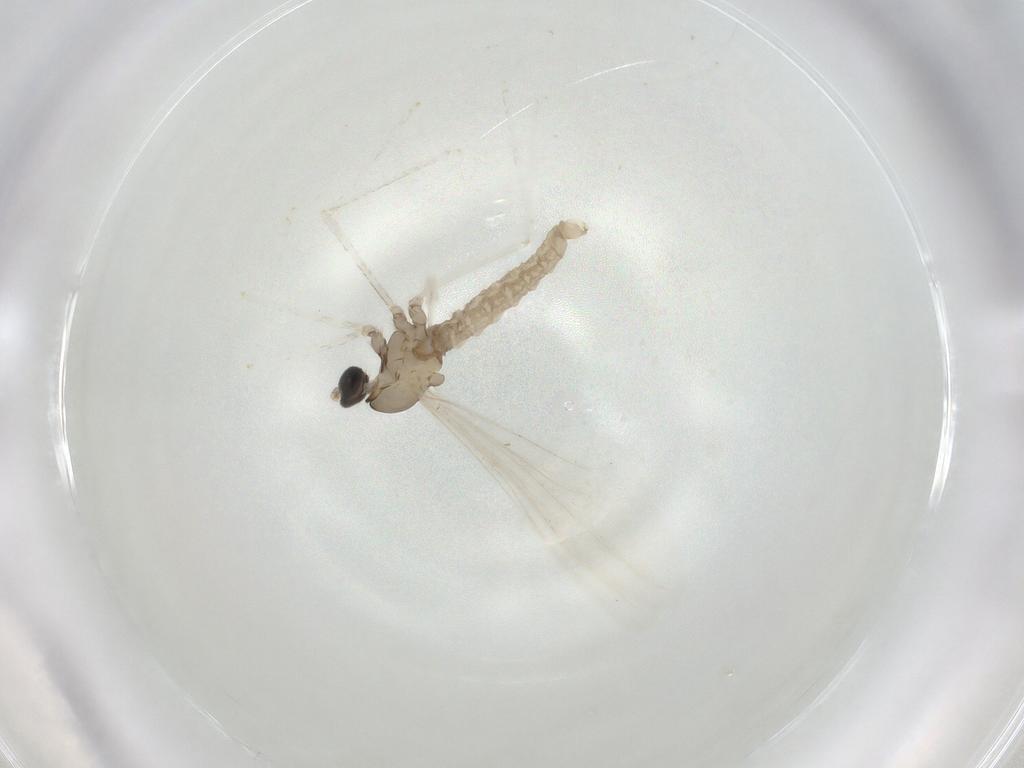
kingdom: Animalia
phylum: Arthropoda
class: Insecta
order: Diptera
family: Cecidomyiidae
